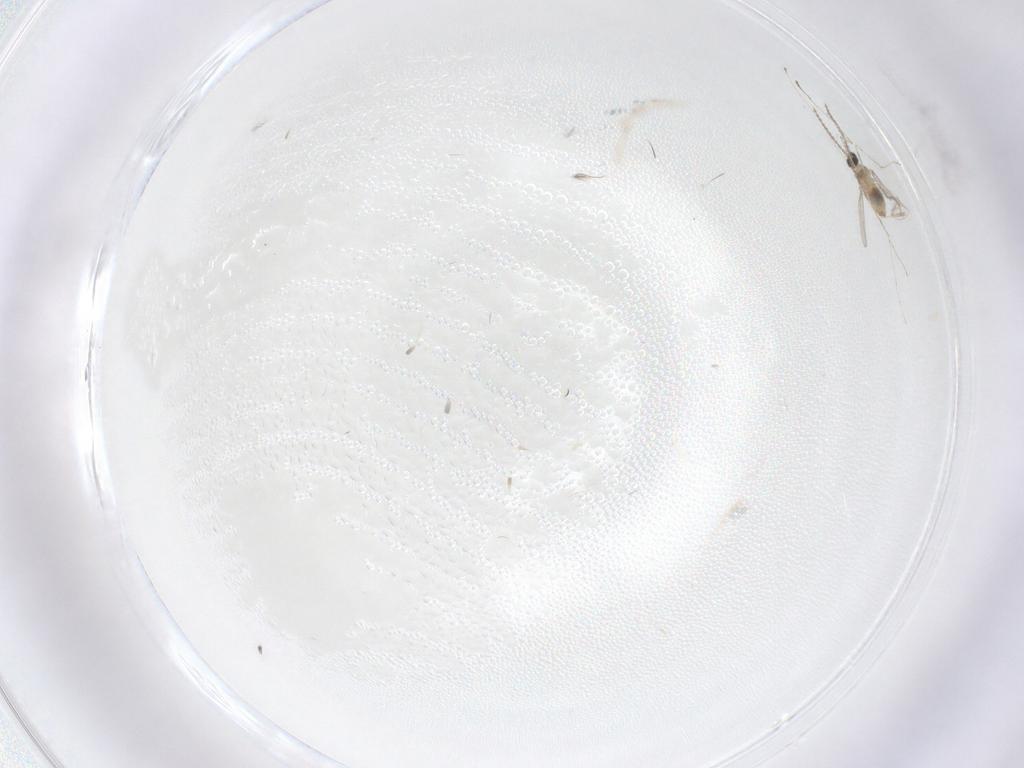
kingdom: Animalia
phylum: Arthropoda
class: Insecta
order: Diptera
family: Cecidomyiidae
